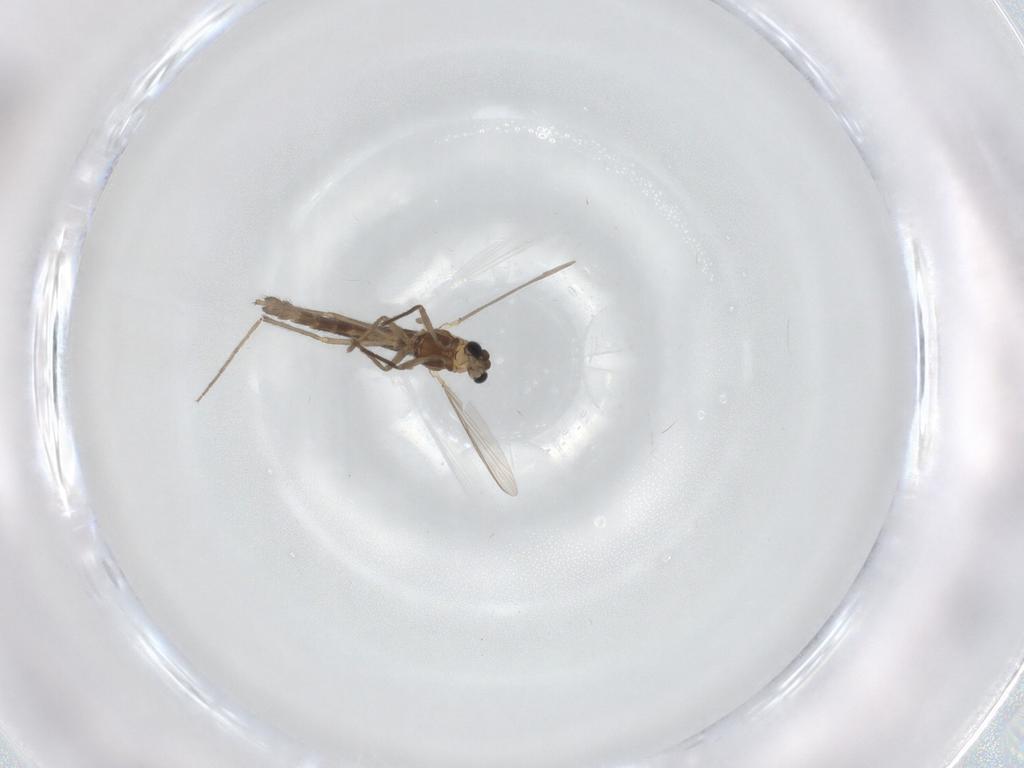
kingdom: Animalia
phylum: Arthropoda
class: Insecta
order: Diptera
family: Chironomidae
